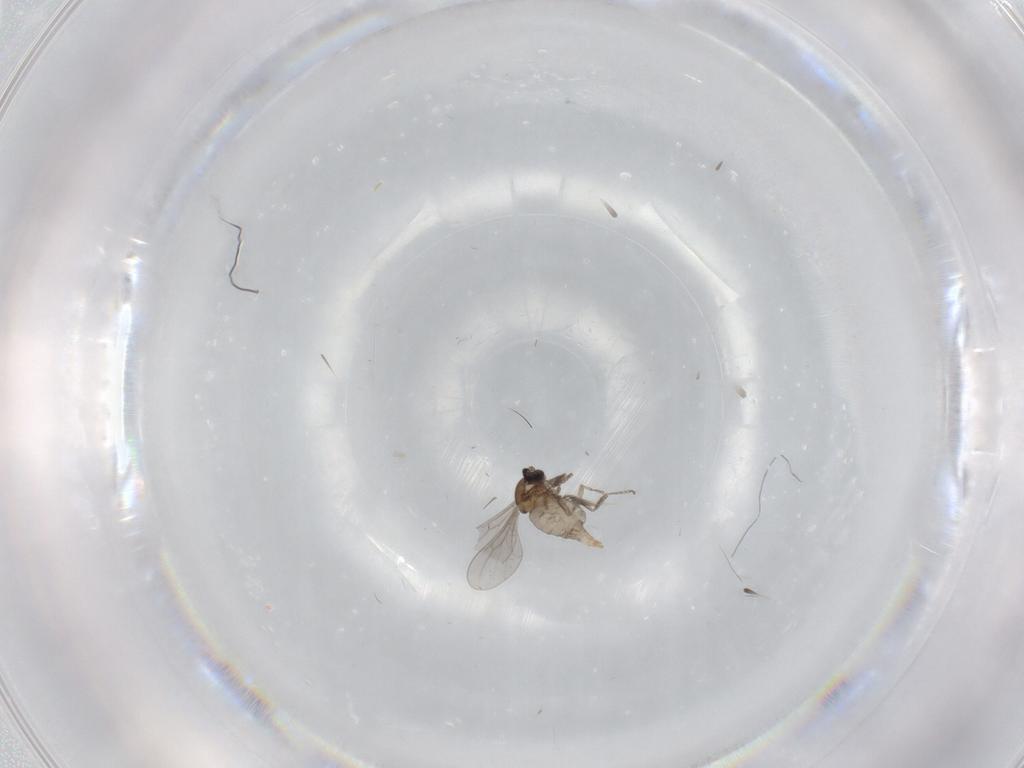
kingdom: Animalia
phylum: Arthropoda
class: Insecta
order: Diptera
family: Cecidomyiidae
